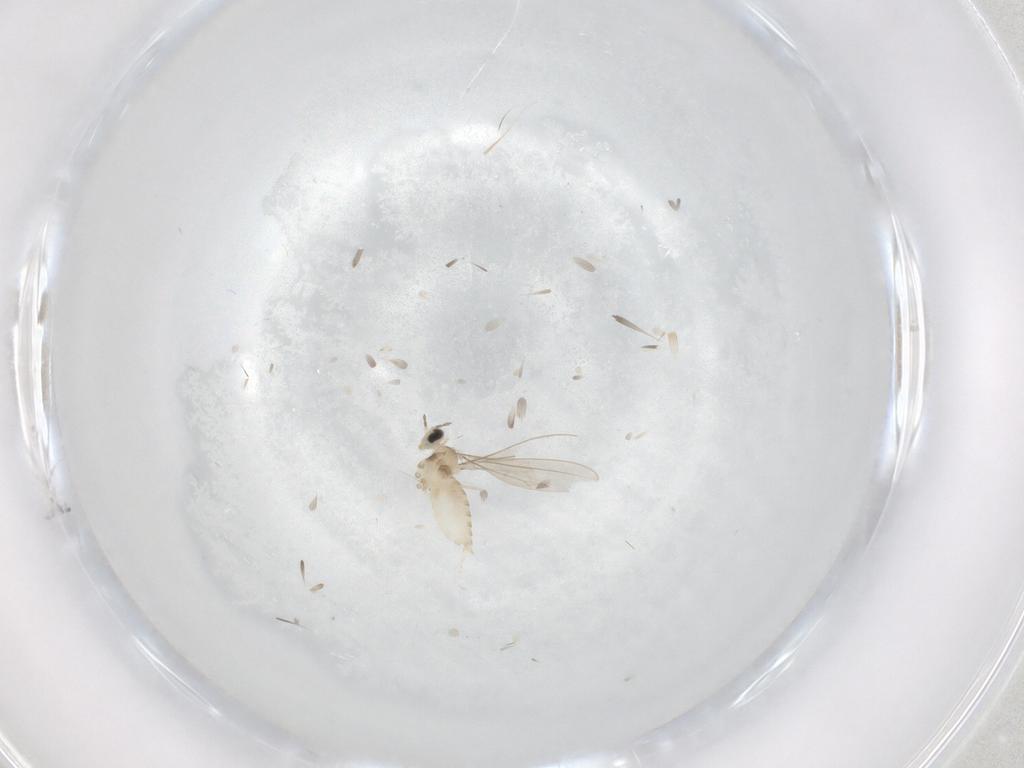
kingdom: Animalia
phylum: Arthropoda
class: Insecta
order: Diptera
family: Cecidomyiidae
